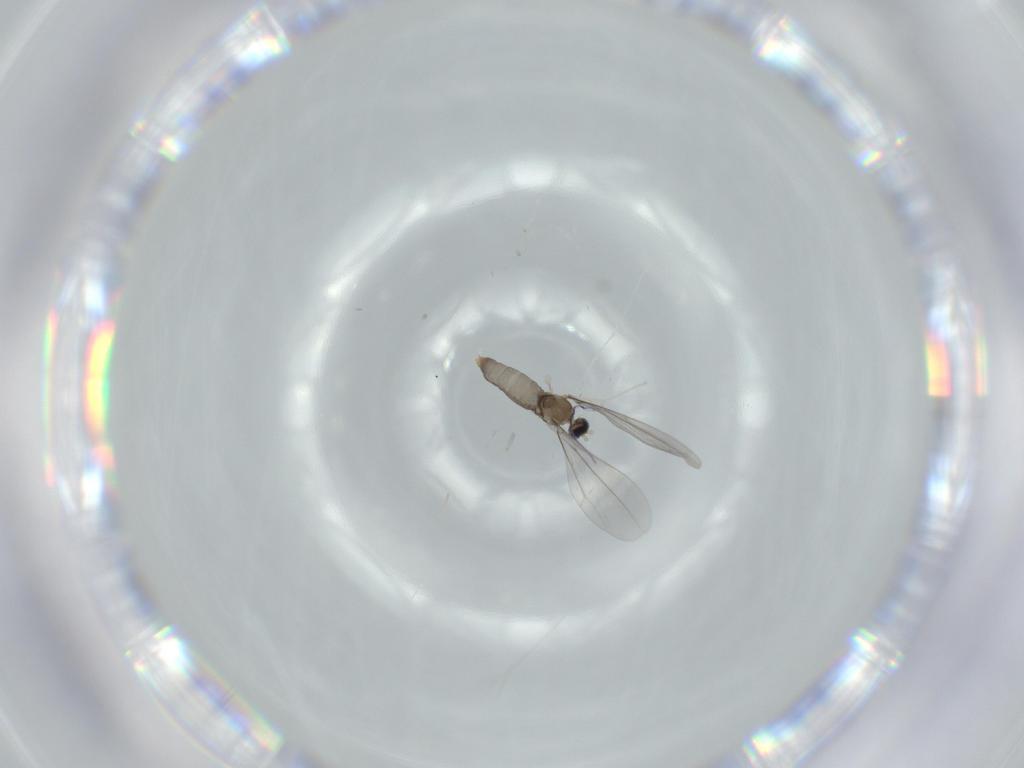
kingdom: Animalia
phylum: Arthropoda
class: Insecta
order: Diptera
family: Cecidomyiidae
